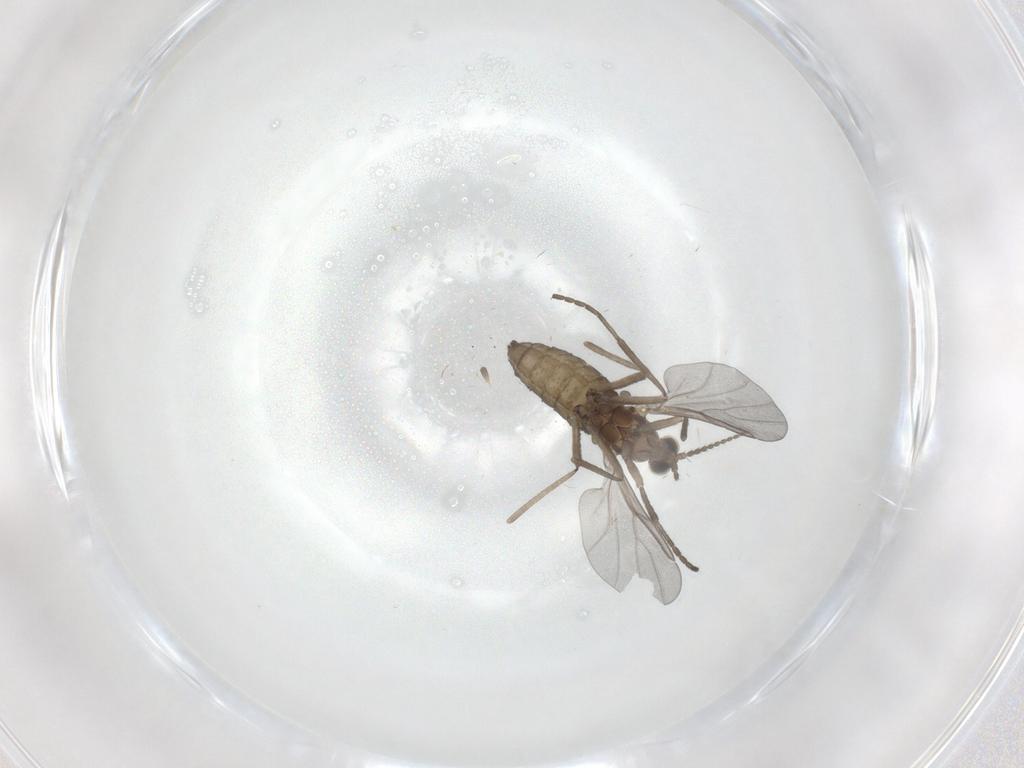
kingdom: Animalia
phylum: Arthropoda
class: Insecta
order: Diptera
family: Cecidomyiidae
